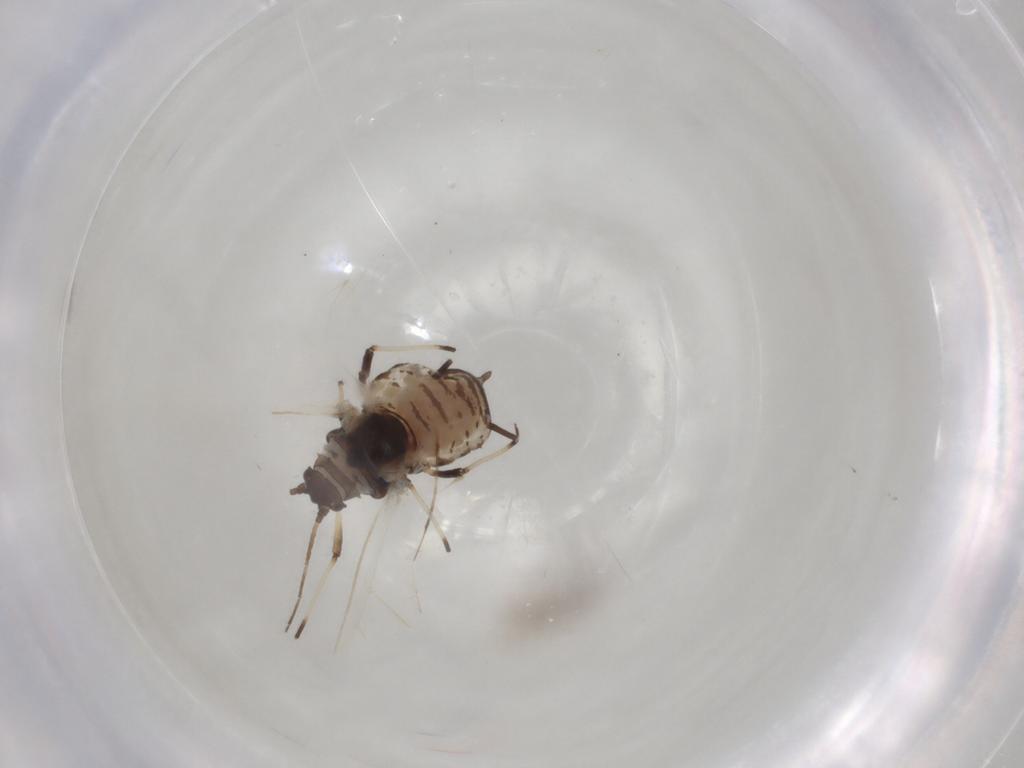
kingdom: Animalia
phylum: Arthropoda
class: Insecta
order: Hemiptera
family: Aphididae
